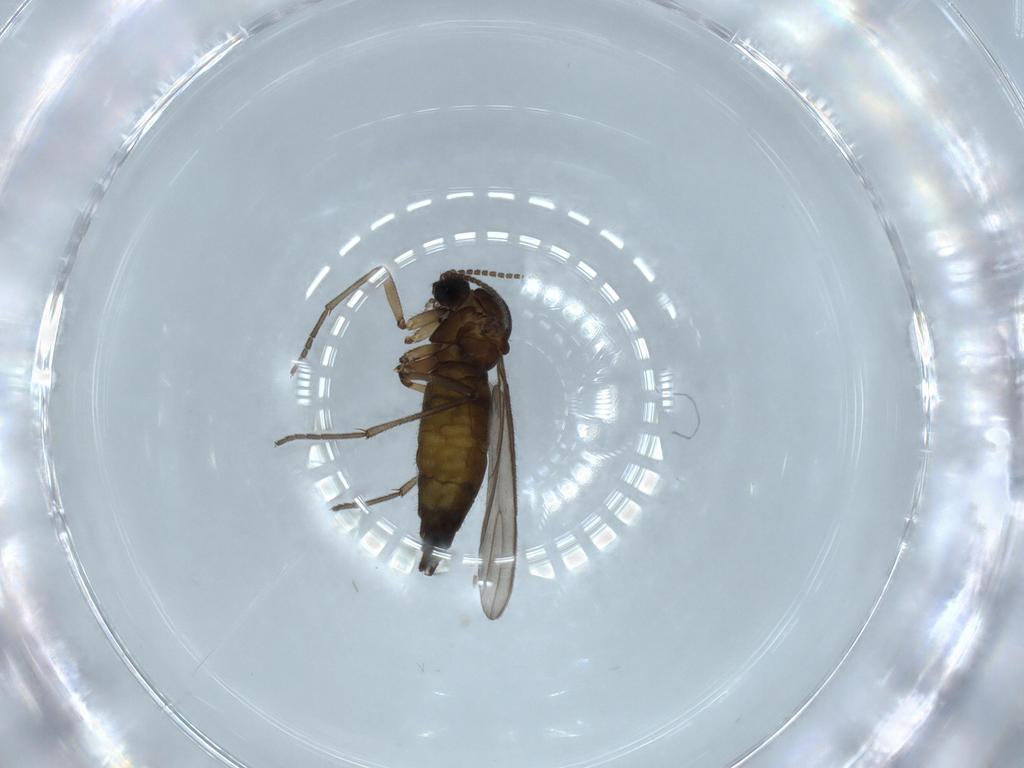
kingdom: Animalia
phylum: Arthropoda
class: Insecta
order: Diptera
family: Sciaridae
